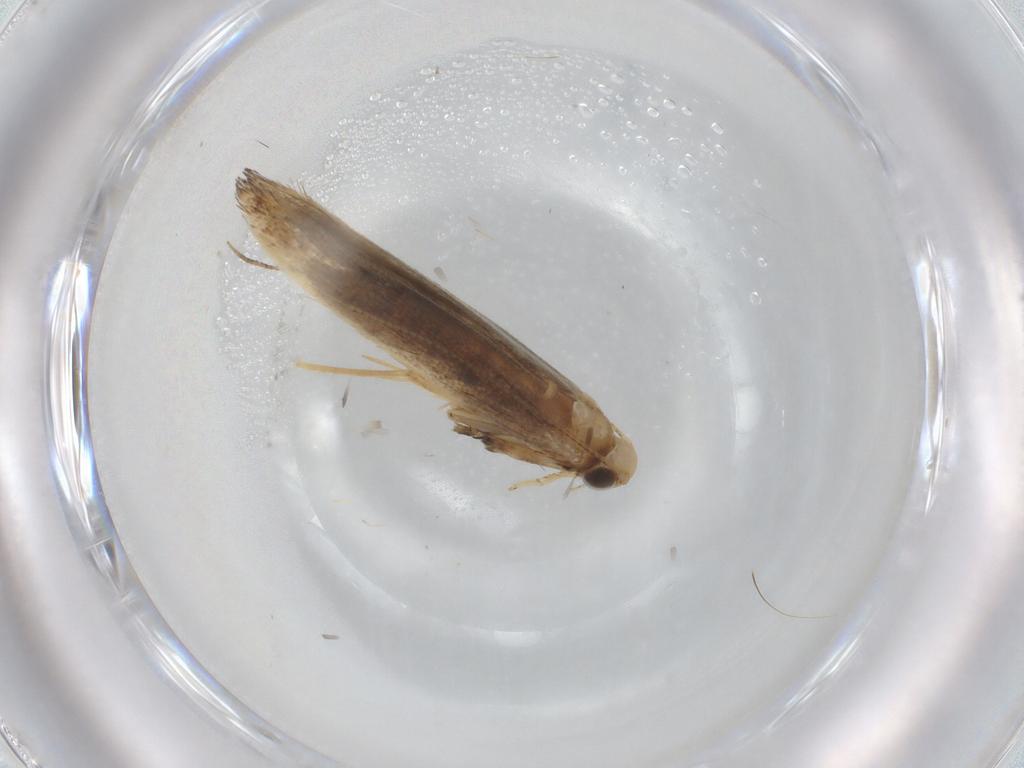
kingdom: Animalia
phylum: Arthropoda
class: Insecta
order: Lepidoptera
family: Gracillariidae
